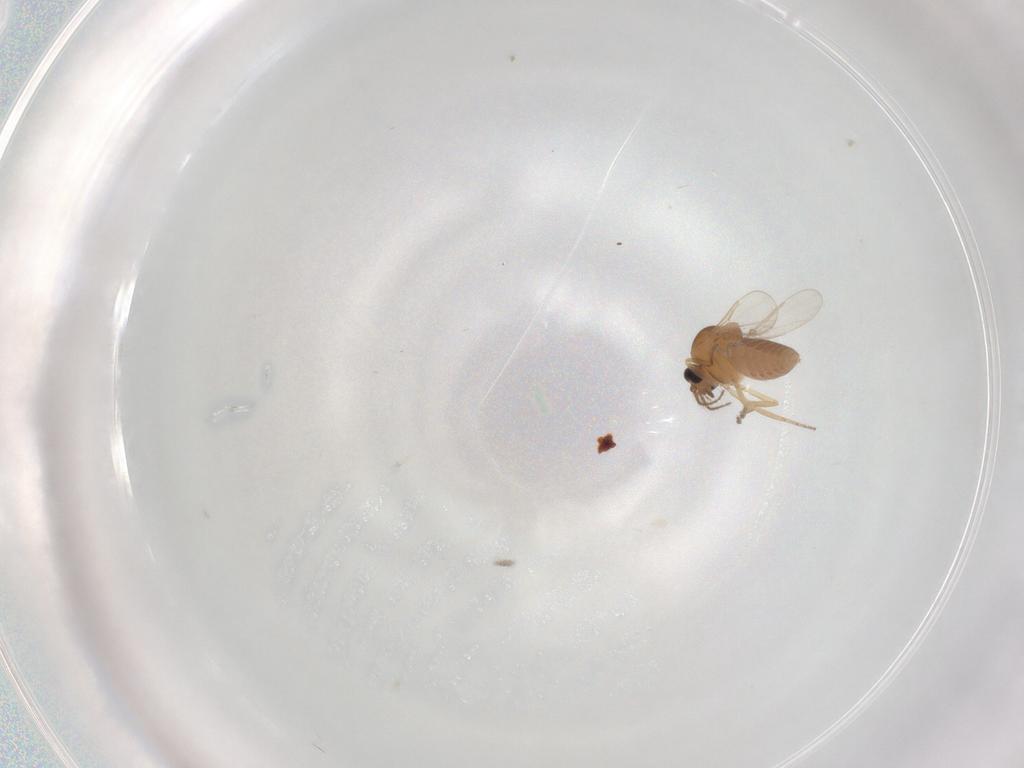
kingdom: Animalia
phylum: Arthropoda
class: Insecta
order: Diptera
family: Ceratopogonidae
